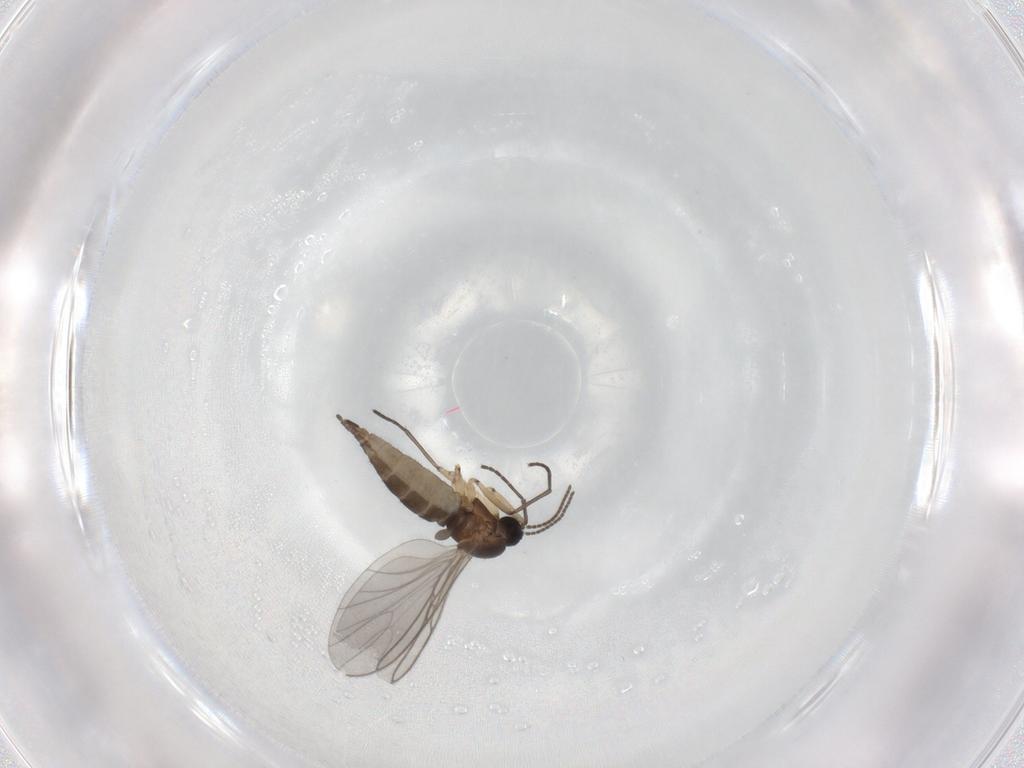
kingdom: Animalia
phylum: Arthropoda
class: Insecta
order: Diptera
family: Sciaridae
